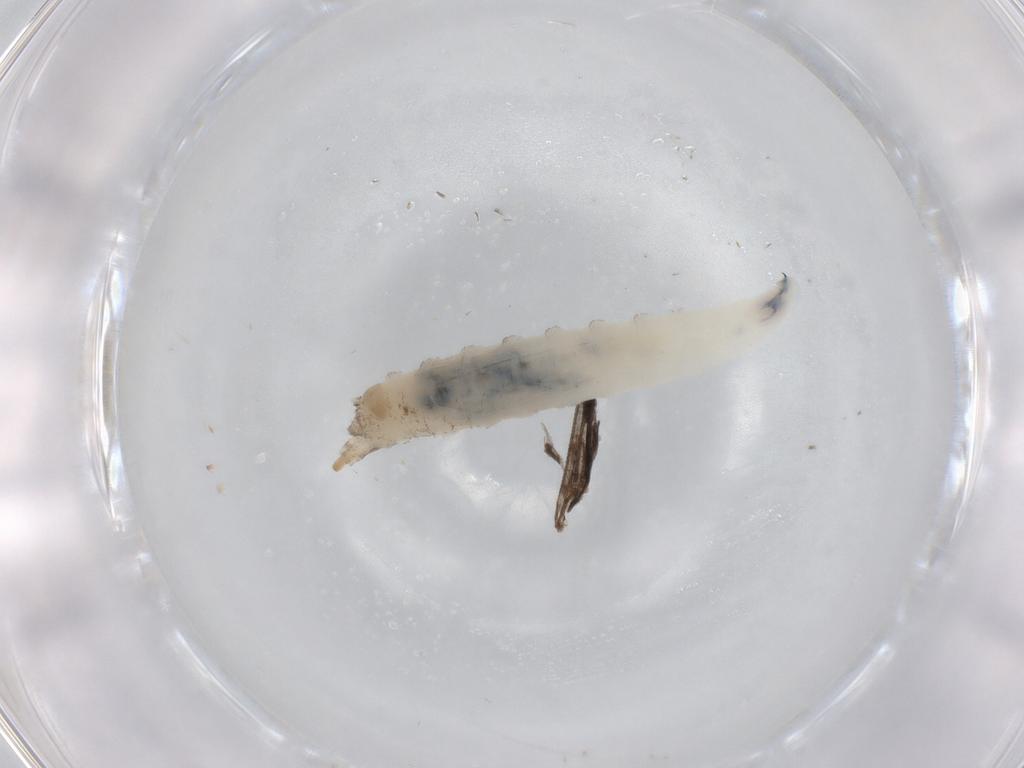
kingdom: Animalia
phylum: Arthropoda
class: Insecta
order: Diptera
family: Drosophilidae
